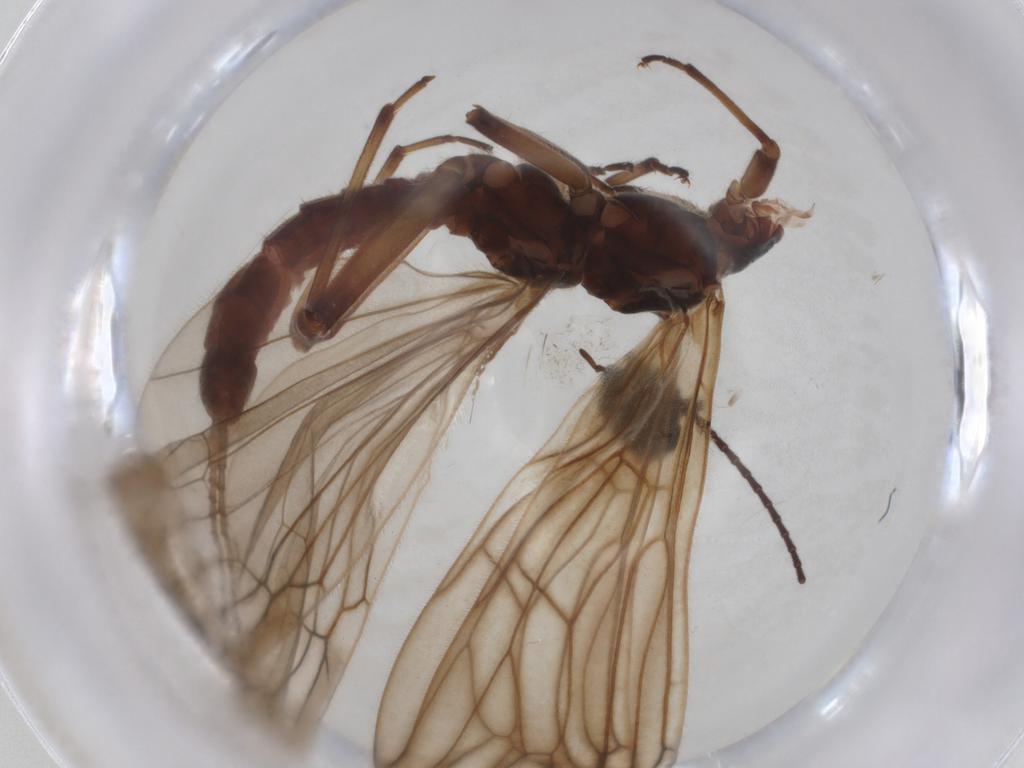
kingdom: Animalia
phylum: Arthropoda
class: Insecta
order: Plecoptera
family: Capniidae
